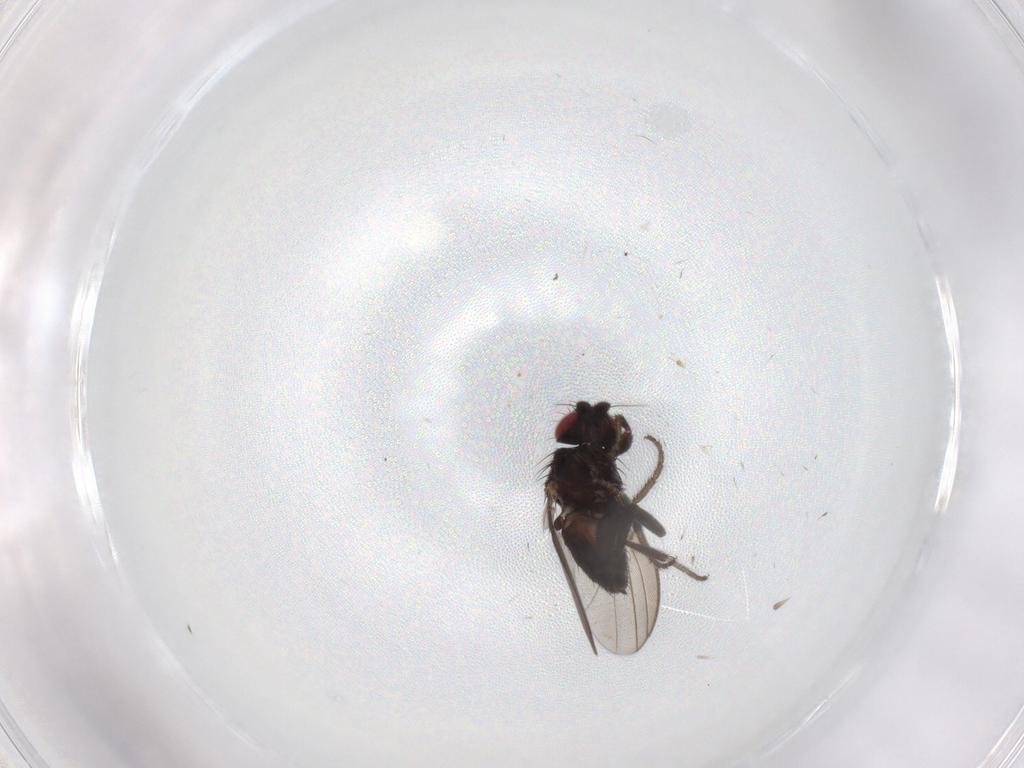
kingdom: Animalia
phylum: Arthropoda
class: Insecta
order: Diptera
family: Milichiidae
